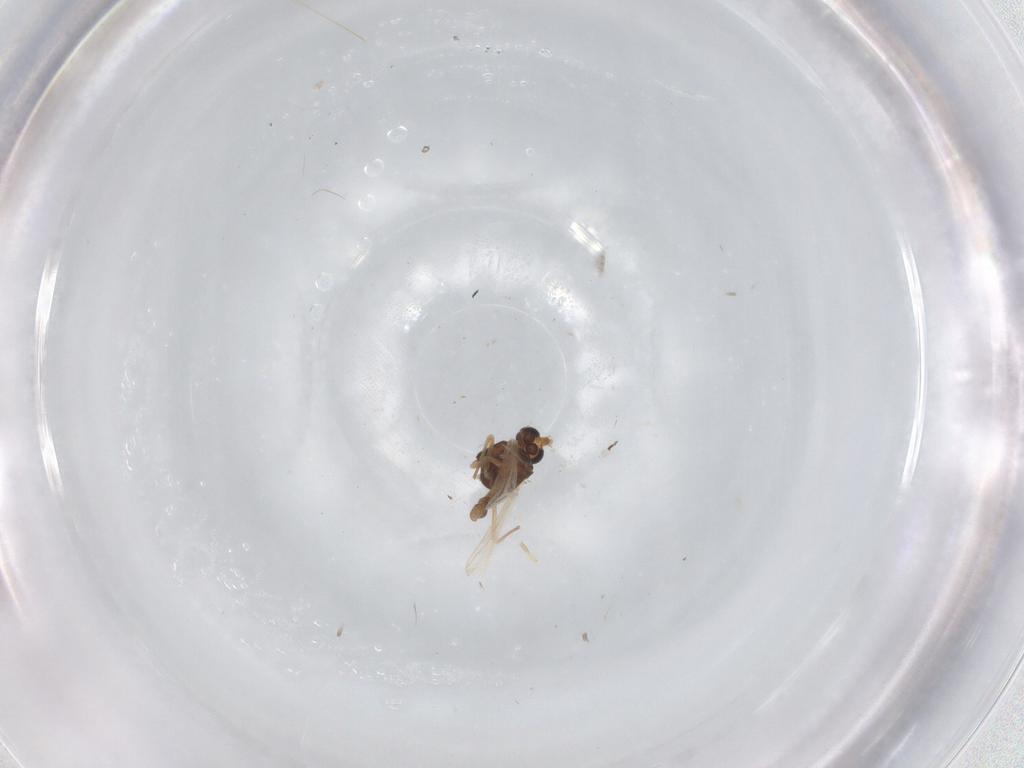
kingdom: Animalia
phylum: Arthropoda
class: Insecta
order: Diptera
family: Chironomidae
